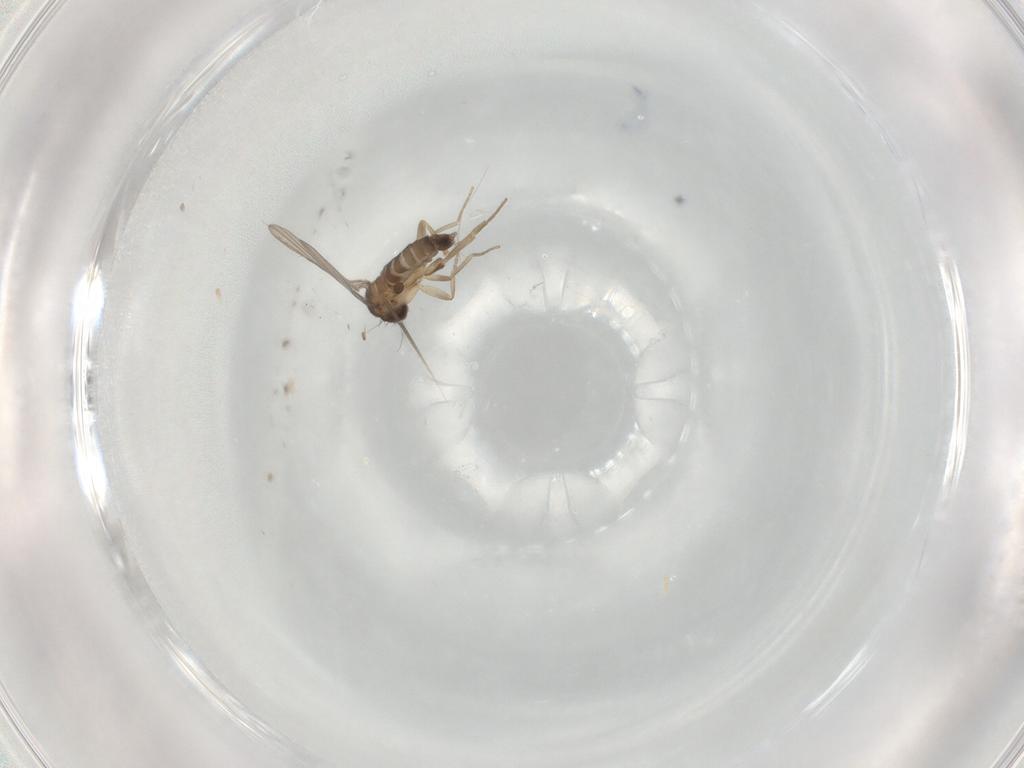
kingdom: Animalia
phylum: Arthropoda
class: Insecta
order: Diptera
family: Phoridae
